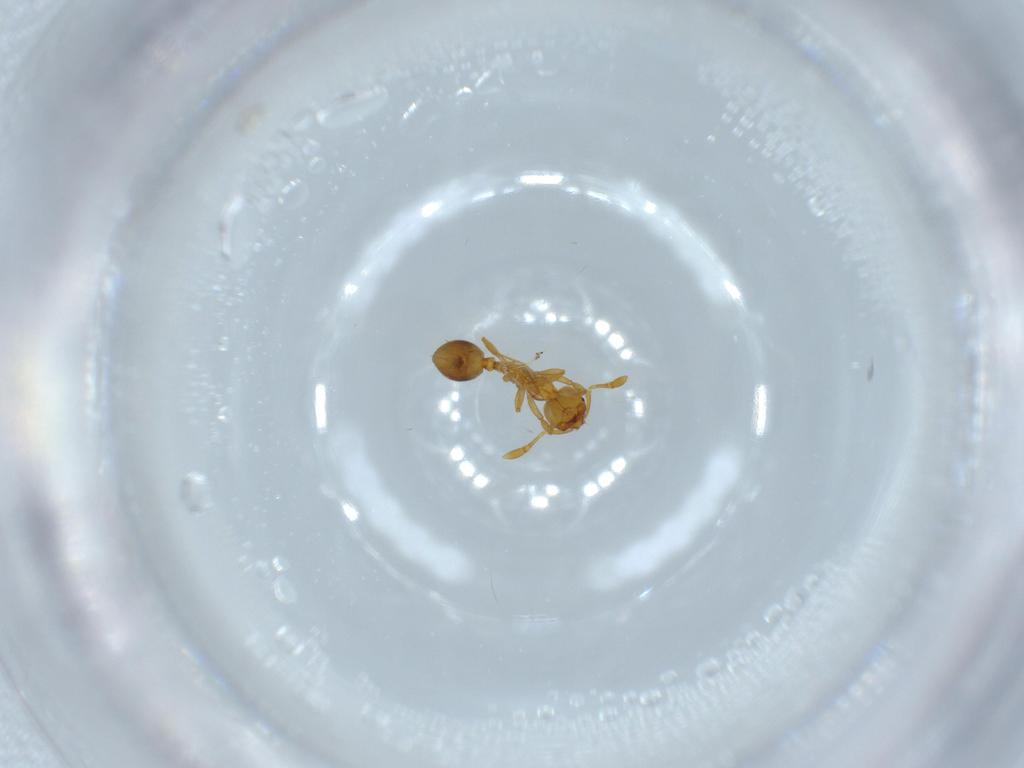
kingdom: Animalia
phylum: Arthropoda
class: Insecta
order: Hymenoptera
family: Formicidae
